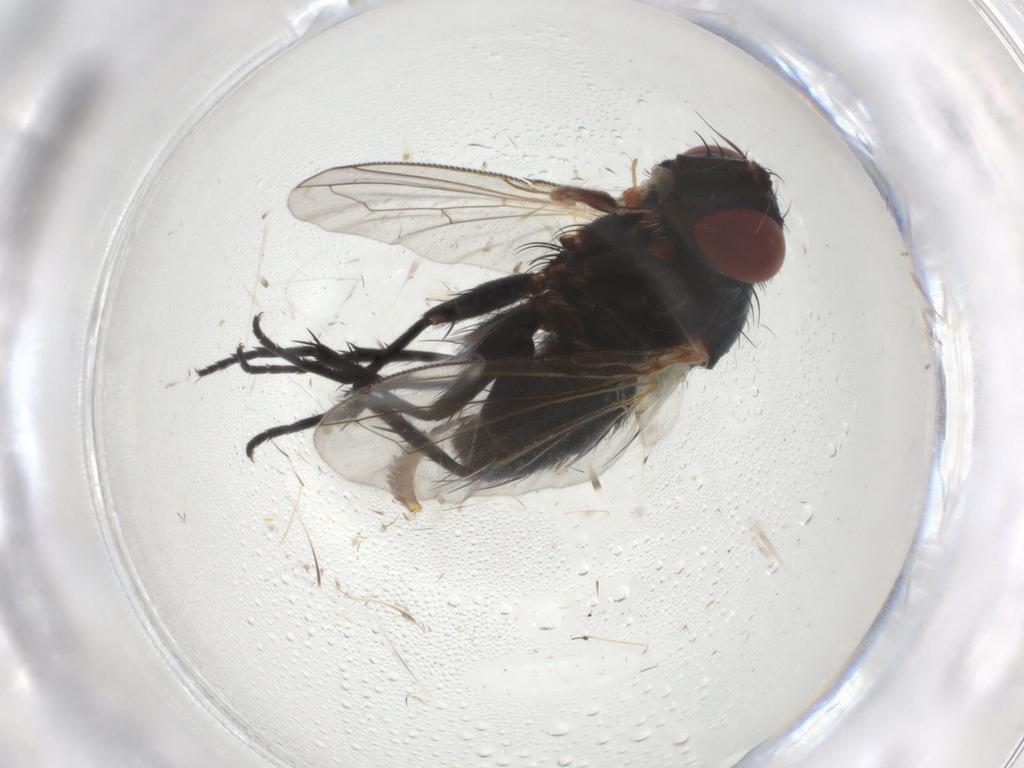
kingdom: Animalia
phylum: Arthropoda
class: Insecta
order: Diptera
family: Tachinidae
